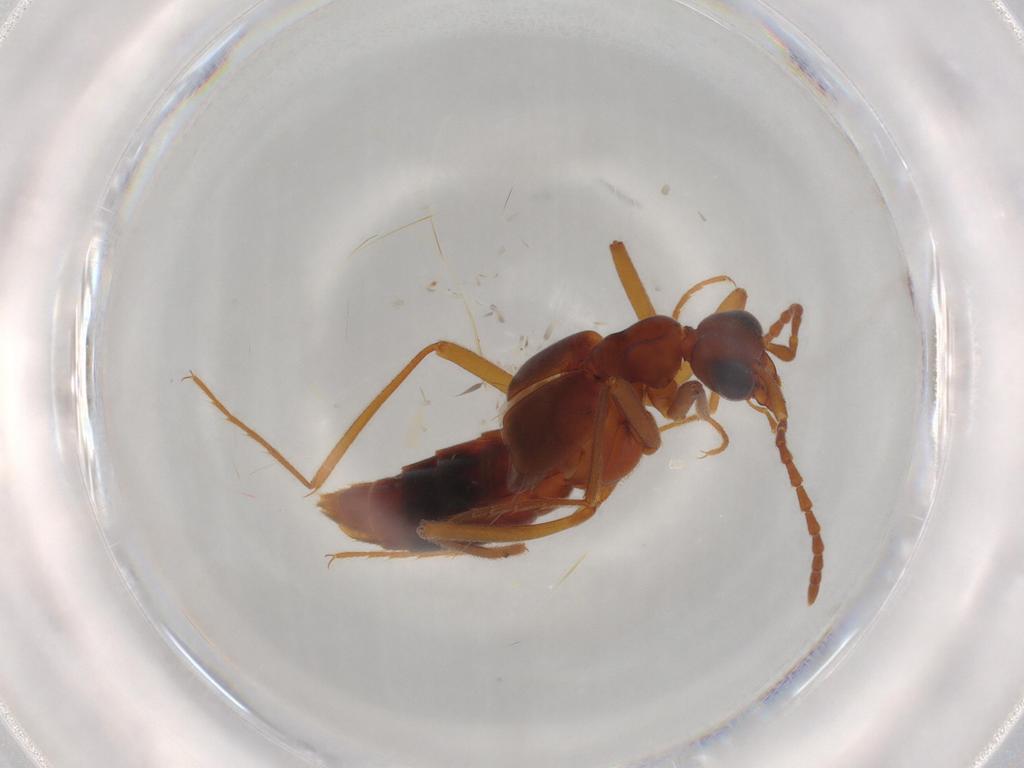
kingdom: Animalia
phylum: Arthropoda
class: Insecta
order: Coleoptera
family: Staphylinidae
